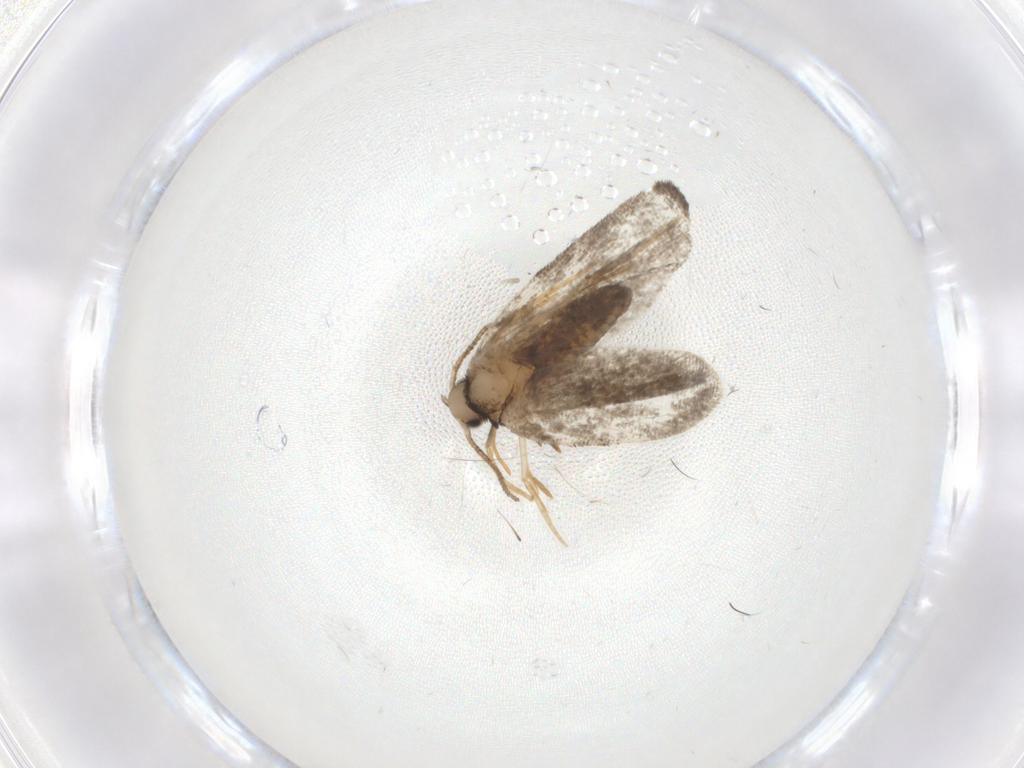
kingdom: Animalia
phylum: Arthropoda
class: Insecta
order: Lepidoptera
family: Psychidae
